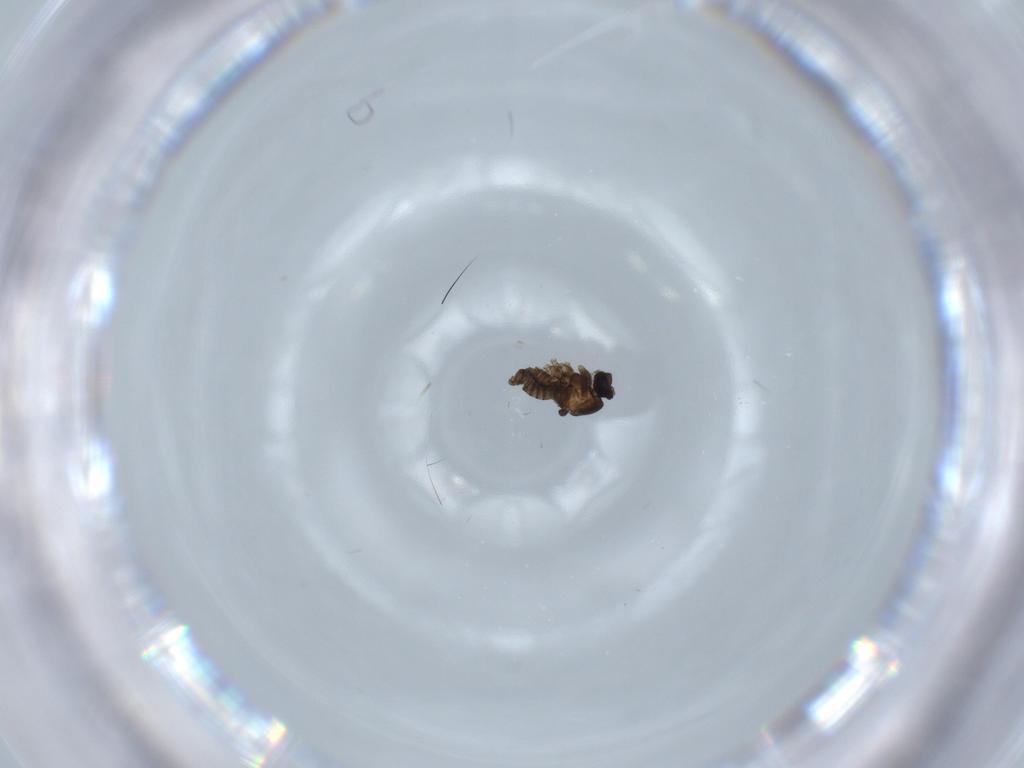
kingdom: Animalia
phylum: Arthropoda
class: Insecta
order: Diptera
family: Cecidomyiidae
